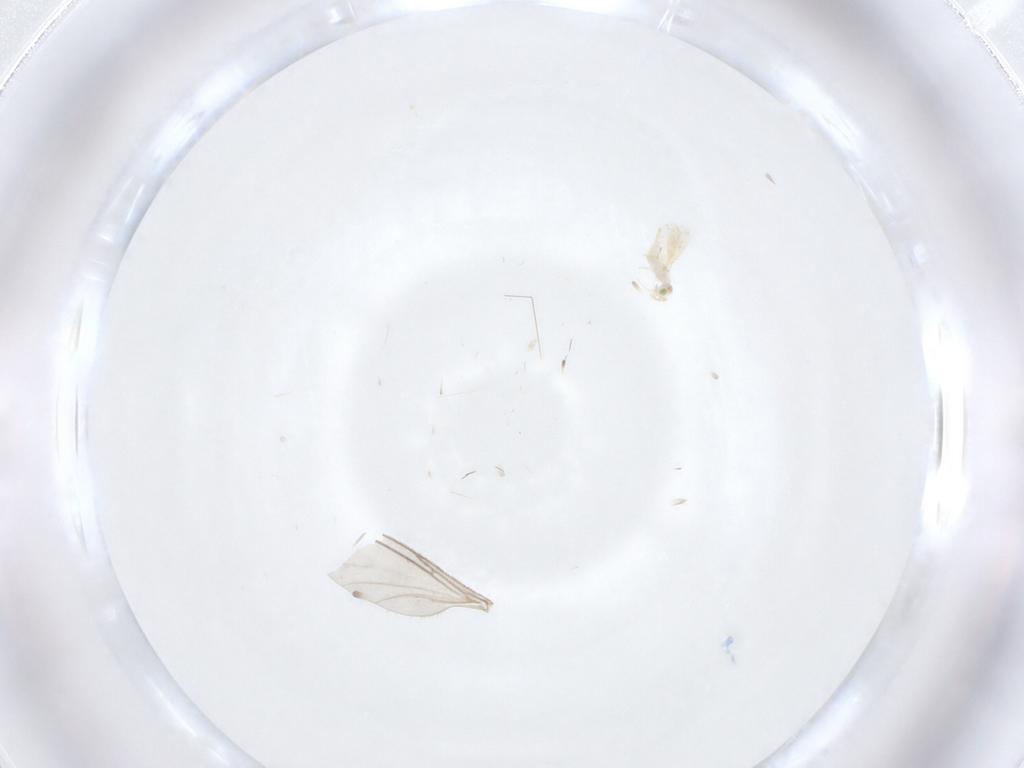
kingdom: Animalia
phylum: Arthropoda
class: Insecta
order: Diptera
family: Sciaridae
